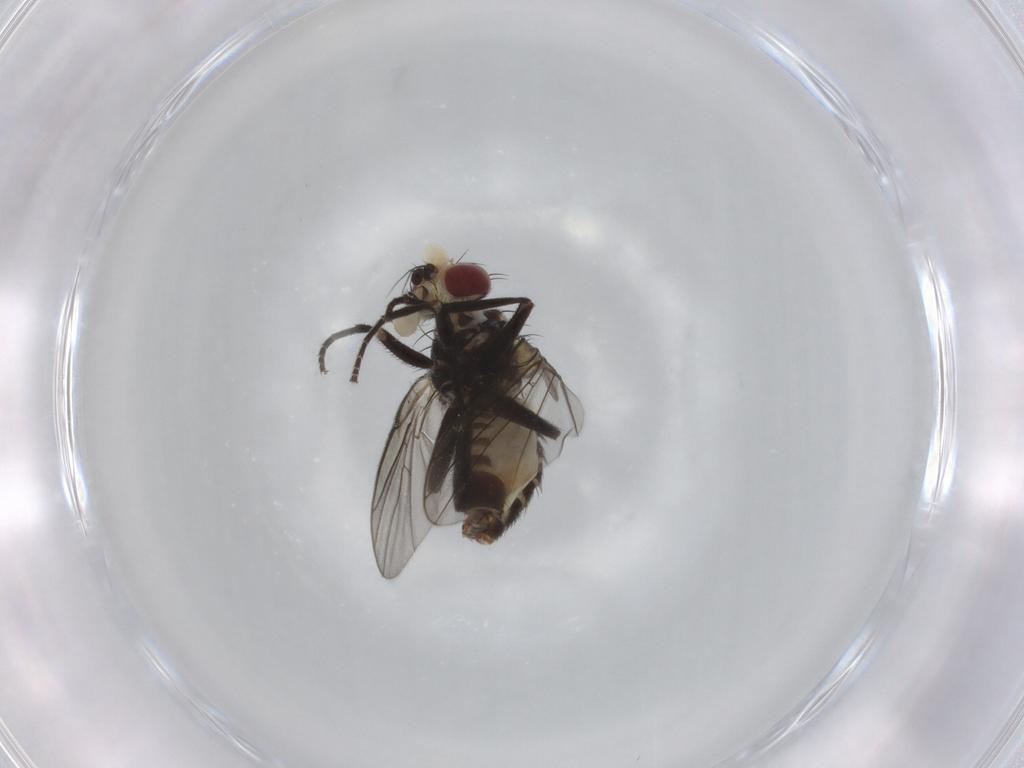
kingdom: Animalia
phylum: Arthropoda
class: Insecta
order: Diptera
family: Agromyzidae
